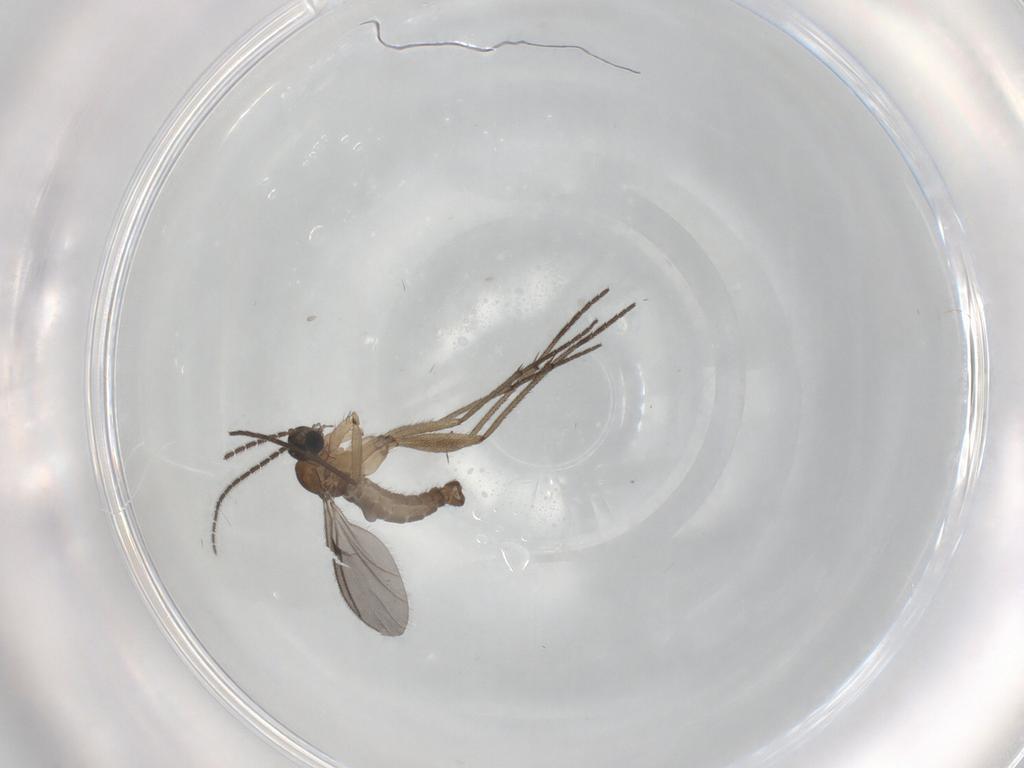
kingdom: Animalia
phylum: Arthropoda
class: Insecta
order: Diptera
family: Sciaridae
